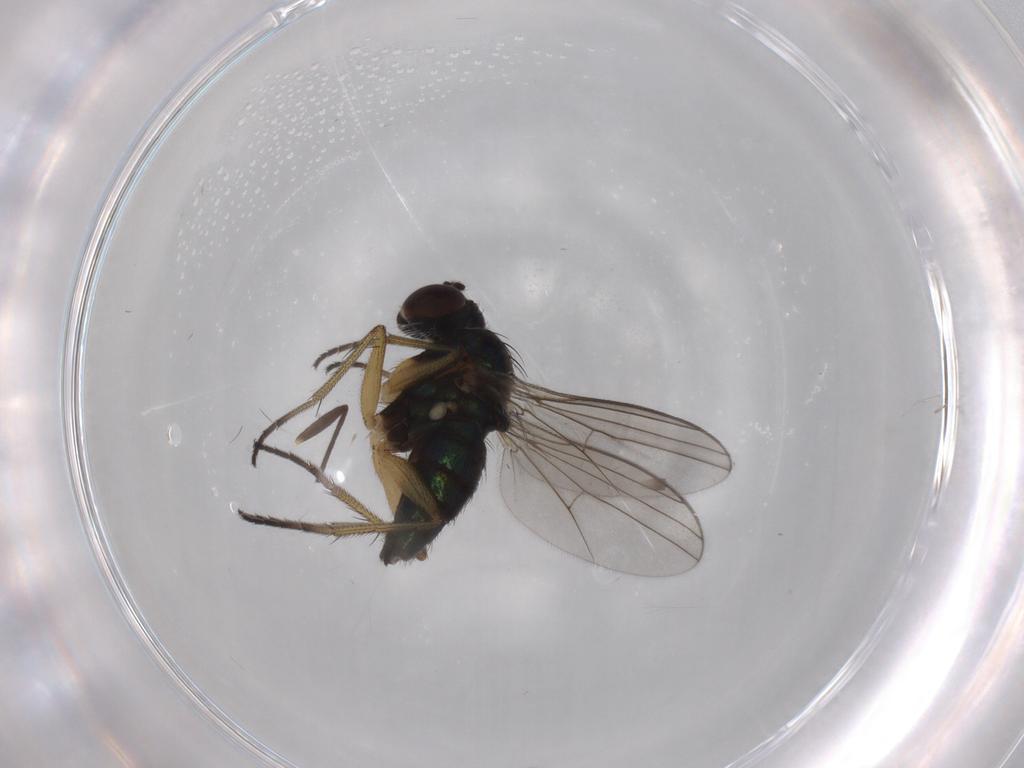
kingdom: Animalia
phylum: Arthropoda
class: Insecta
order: Diptera
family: Chironomidae
